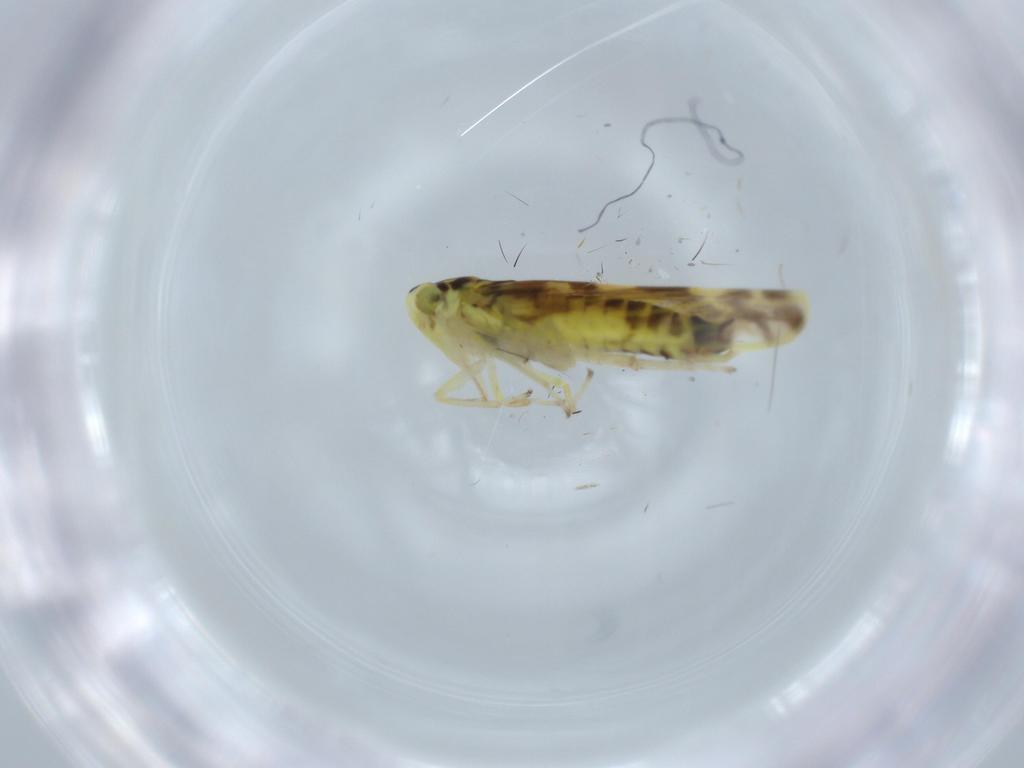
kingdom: Animalia
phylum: Arthropoda
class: Insecta
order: Hemiptera
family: Cicadellidae
